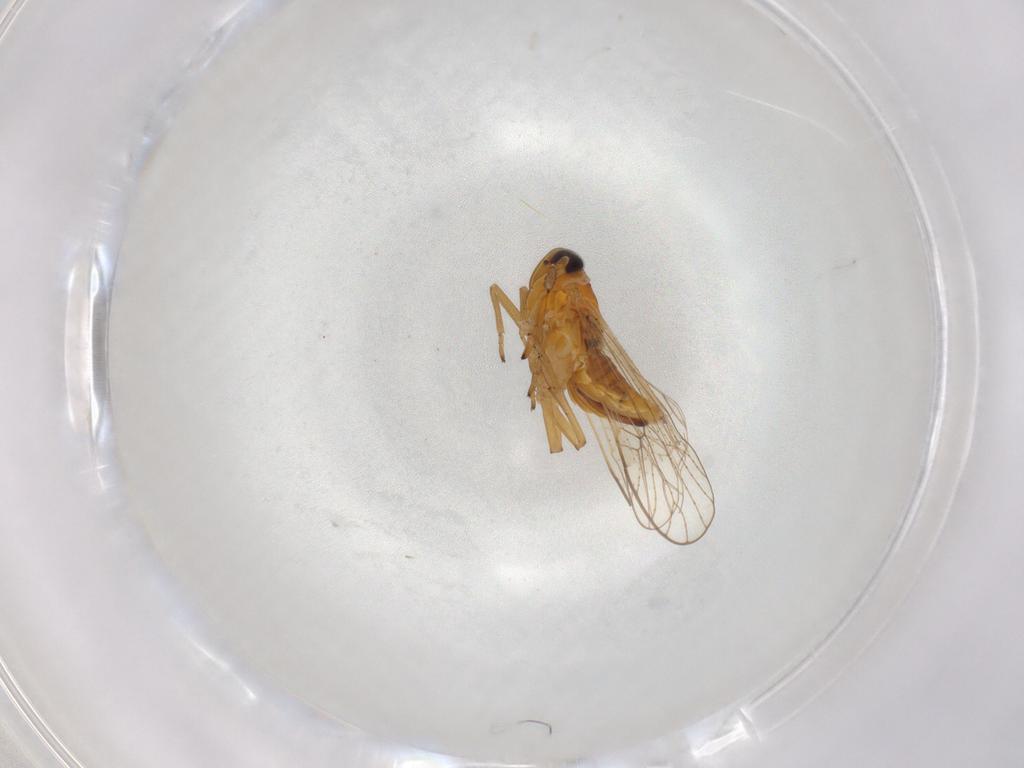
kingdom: Animalia
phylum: Arthropoda
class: Insecta
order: Hemiptera
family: Cicadellidae
